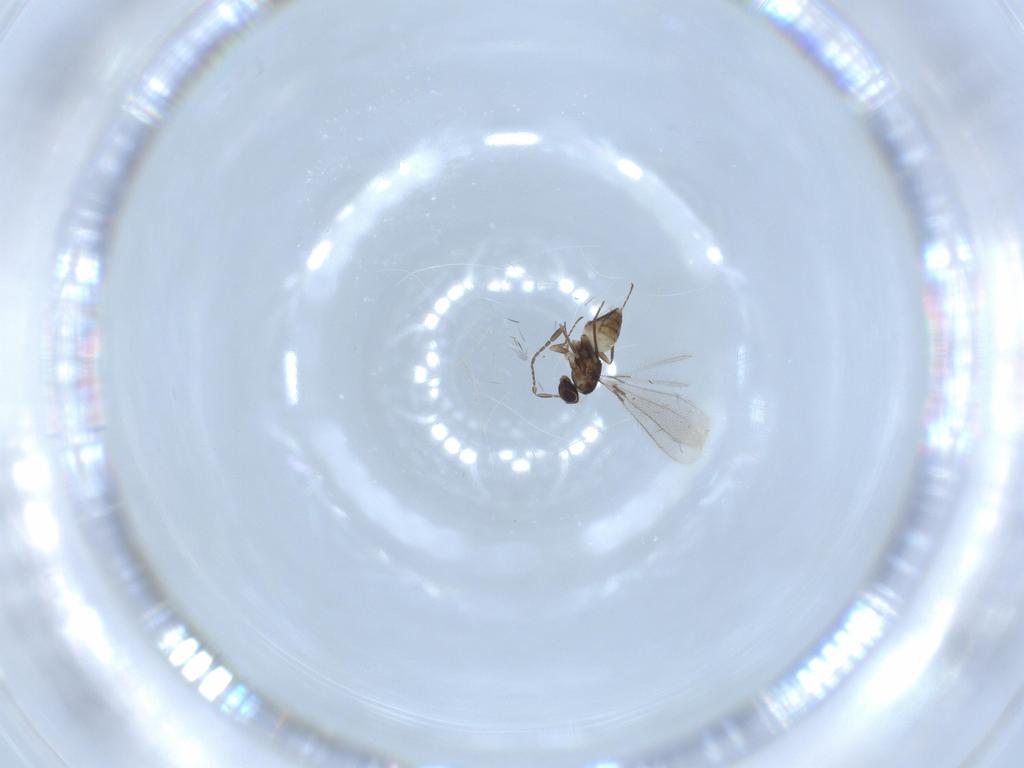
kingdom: Animalia
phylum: Arthropoda
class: Insecta
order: Hymenoptera
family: Mymaridae
